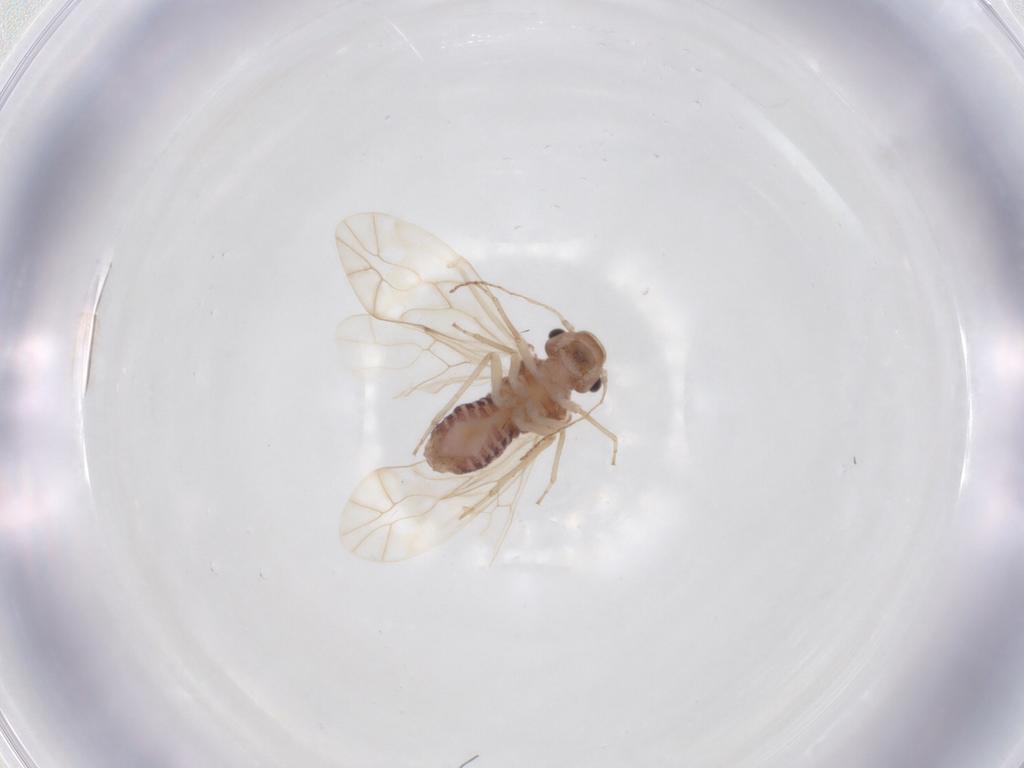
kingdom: Animalia
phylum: Arthropoda
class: Insecta
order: Psocodea
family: Peripsocidae
